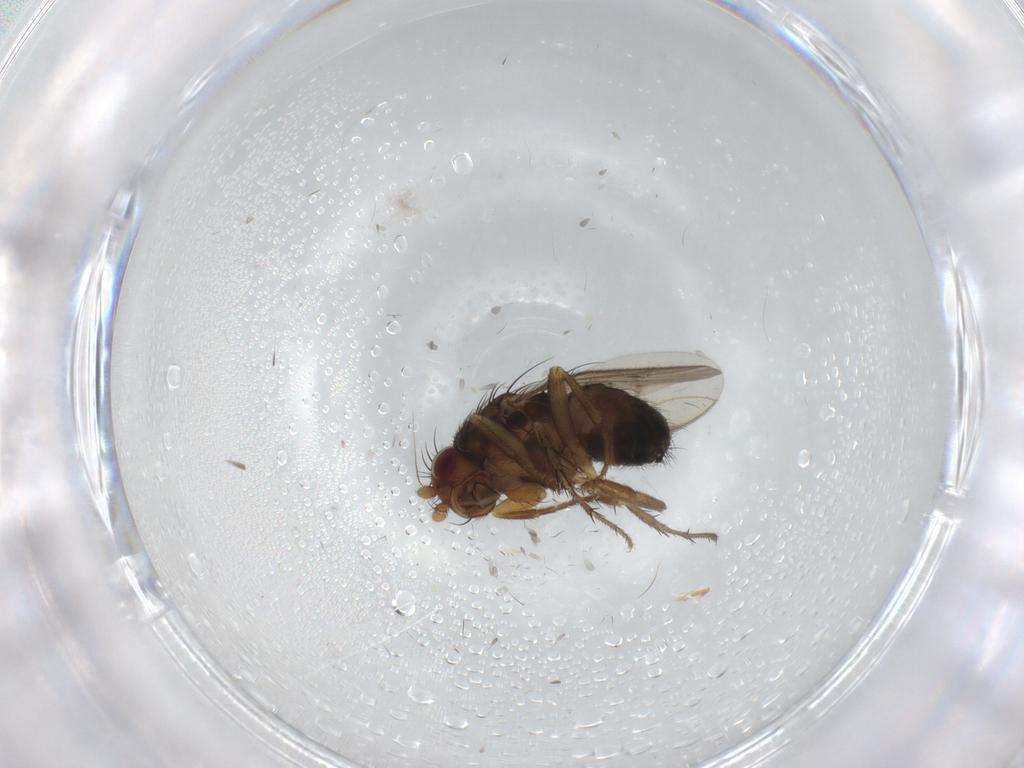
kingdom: Animalia
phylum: Arthropoda
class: Insecta
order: Diptera
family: Sphaeroceridae
